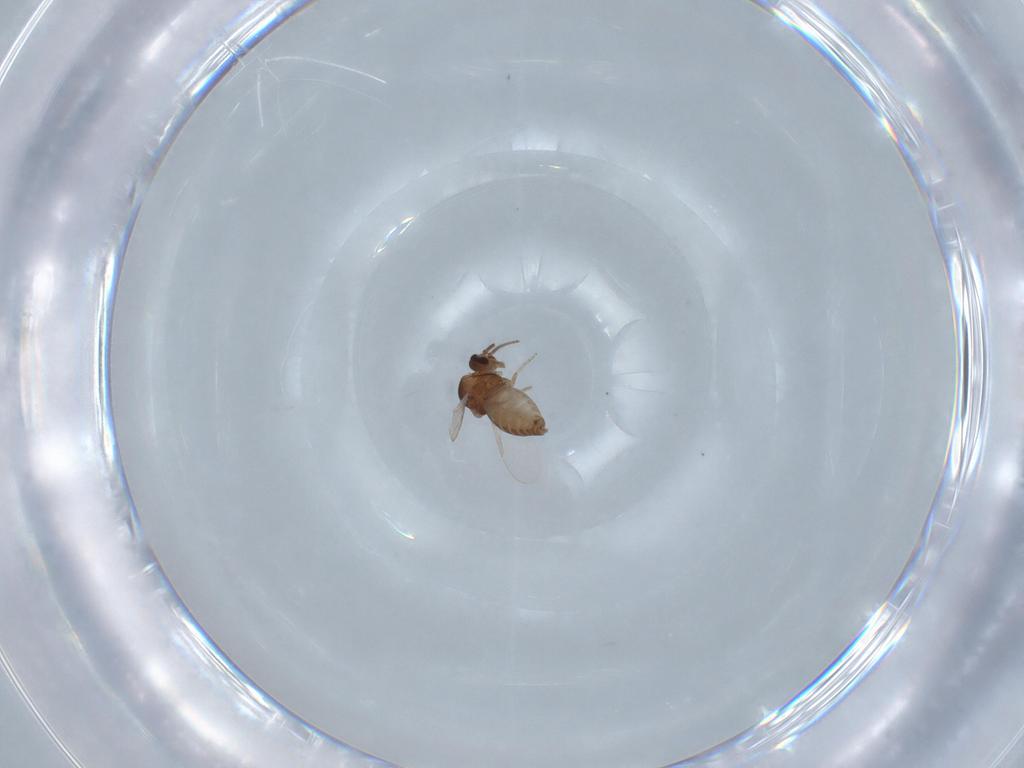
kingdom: Animalia
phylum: Arthropoda
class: Insecta
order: Diptera
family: Ceratopogonidae
